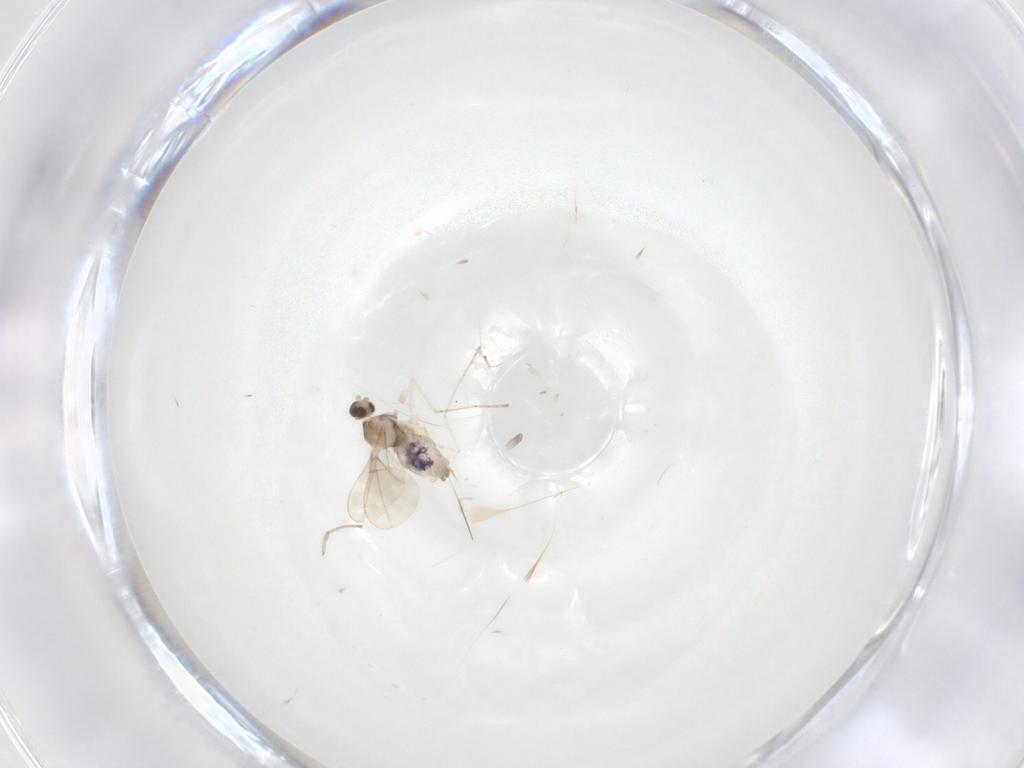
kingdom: Animalia
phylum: Arthropoda
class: Insecta
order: Diptera
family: Cecidomyiidae
